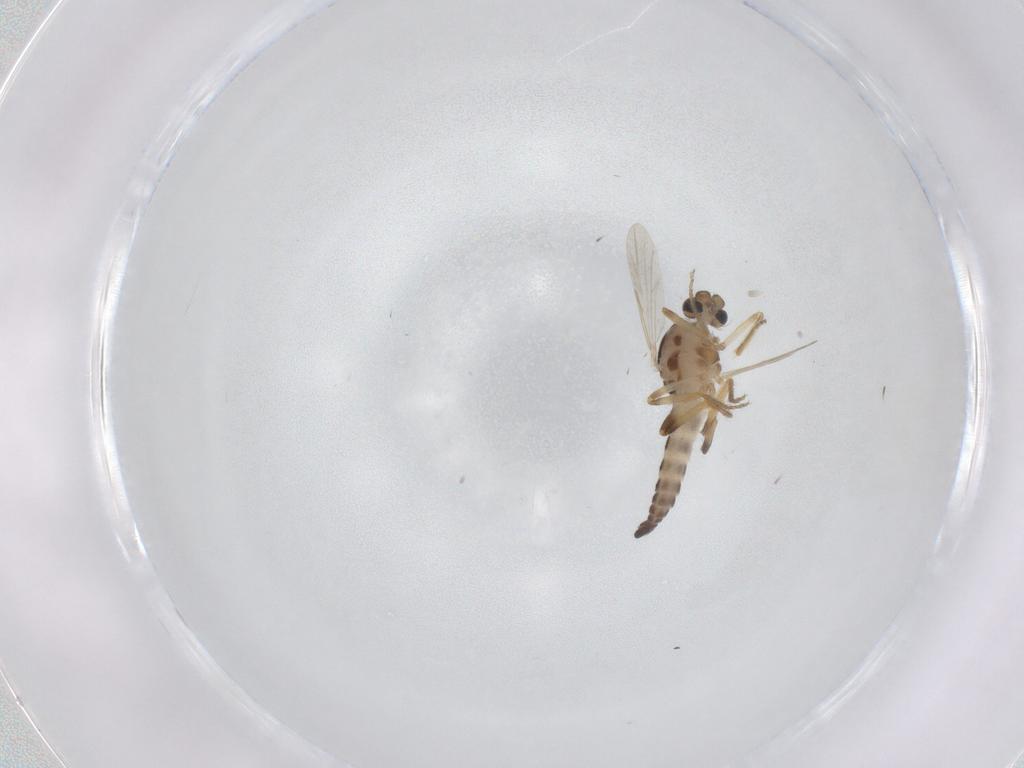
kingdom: Animalia
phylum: Arthropoda
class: Insecta
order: Diptera
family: Ceratopogonidae
